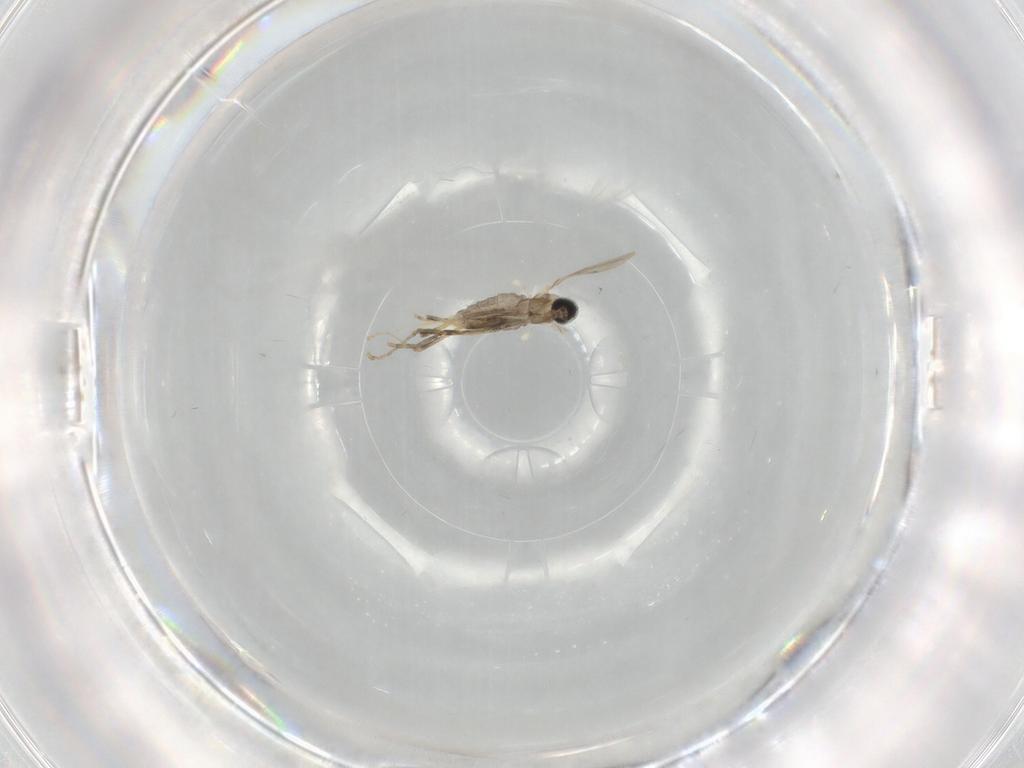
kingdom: Animalia
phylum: Arthropoda
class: Insecta
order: Diptera
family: Cecidomyiidae
